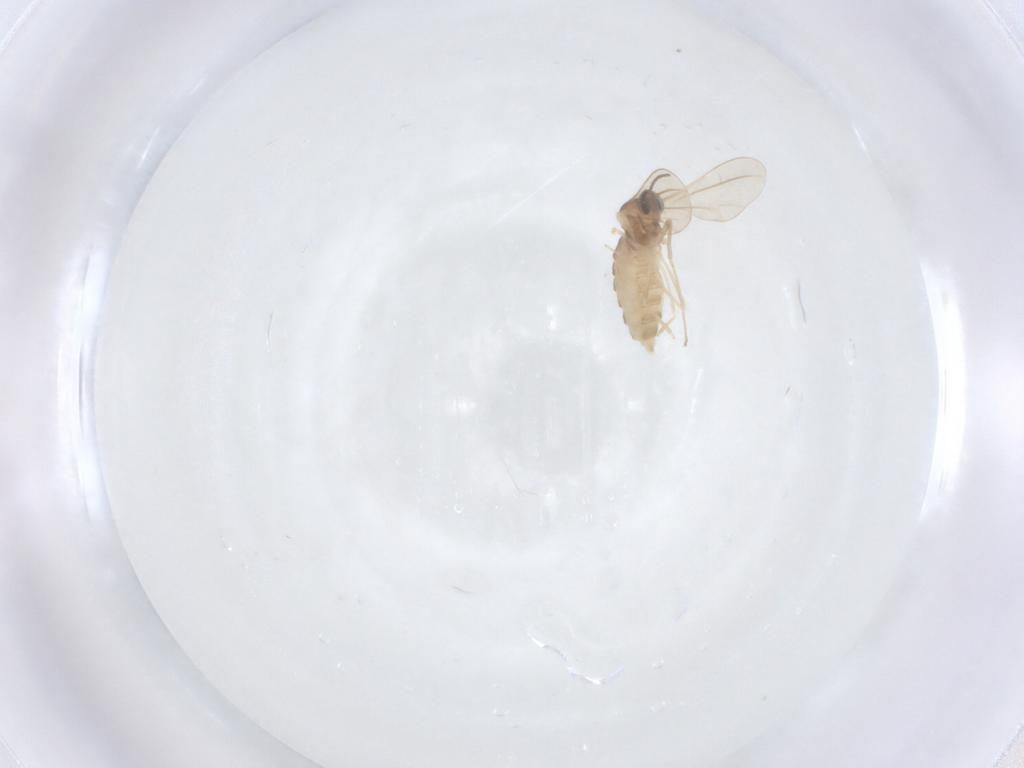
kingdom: Animalia
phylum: Arthropoda
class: Insecta
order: Diptera
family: Cecidomyiidae
